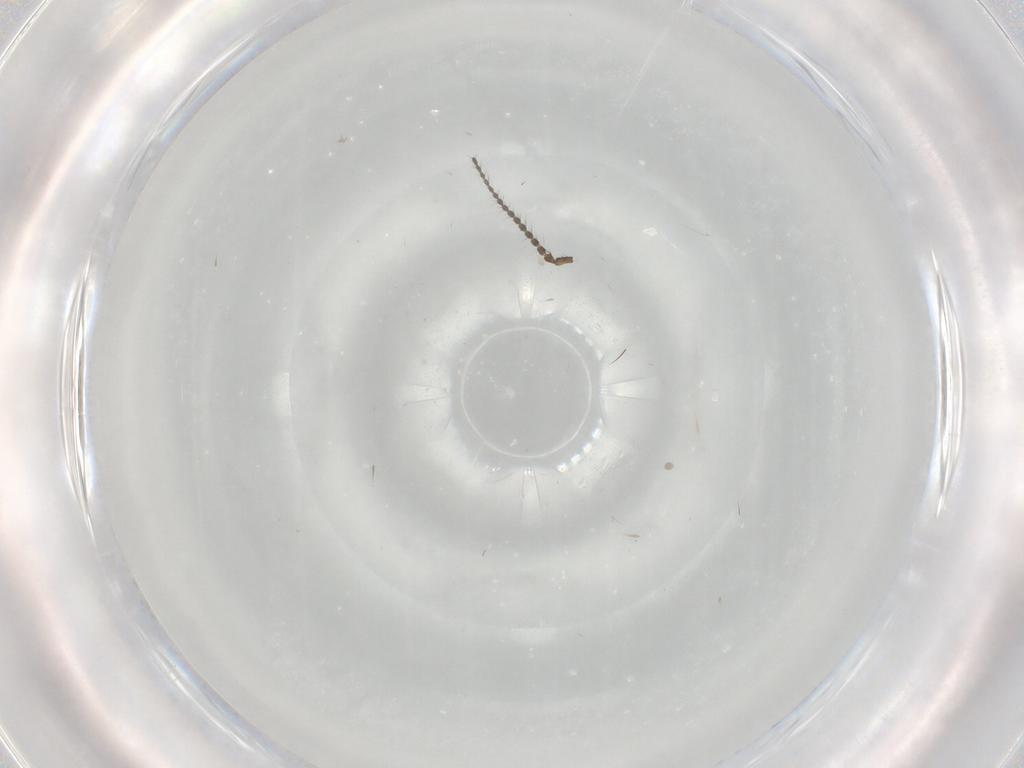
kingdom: Animalia
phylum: Arthropoda
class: Insecta
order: Diptera
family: Limoniidae
